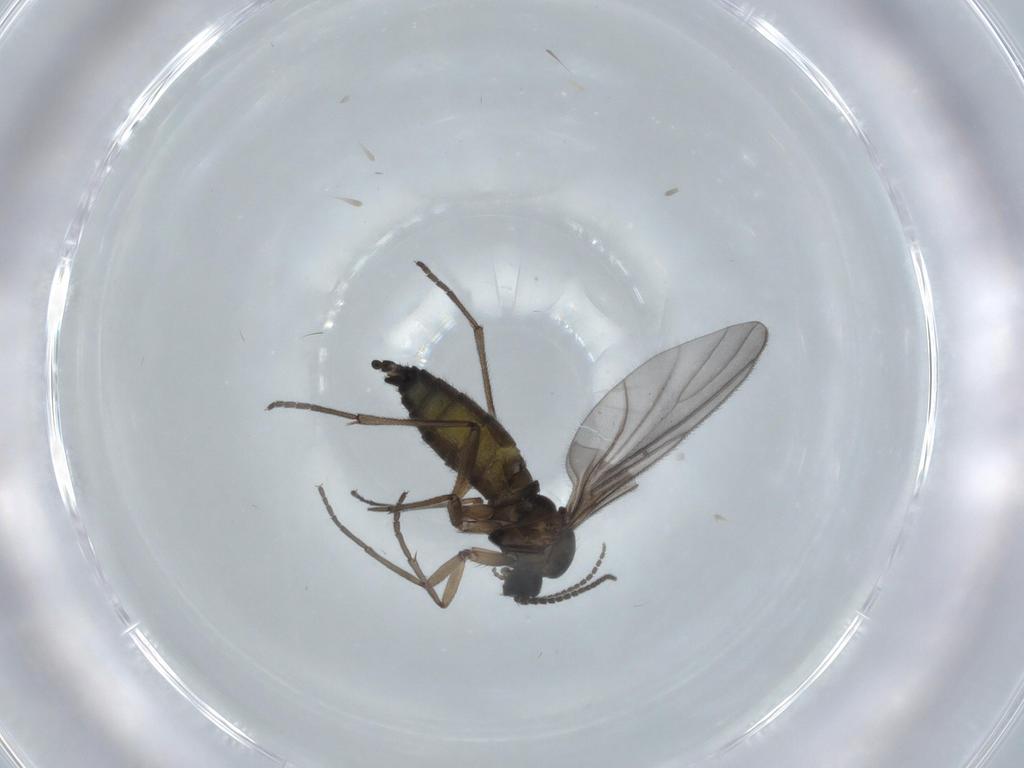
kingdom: Animalia
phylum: Arthropoda
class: Insecta
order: Diptera
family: Sciaridae
